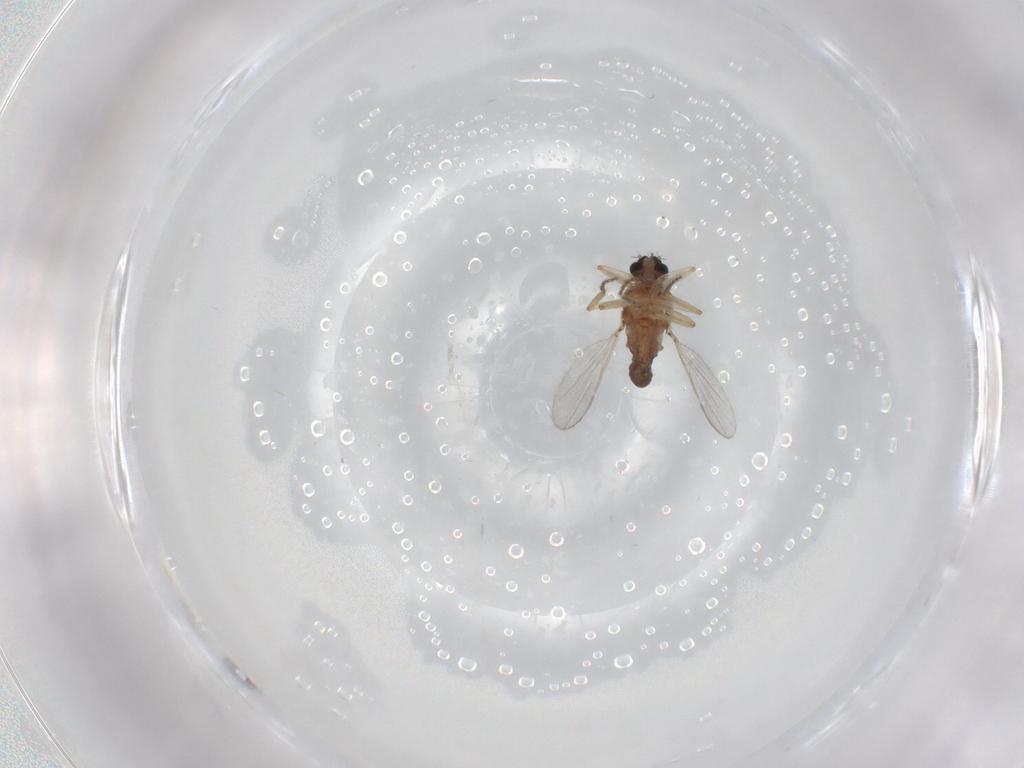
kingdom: Animalia
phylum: Arthropoda
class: Insecta
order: Diptera
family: Ceratopogonidae
